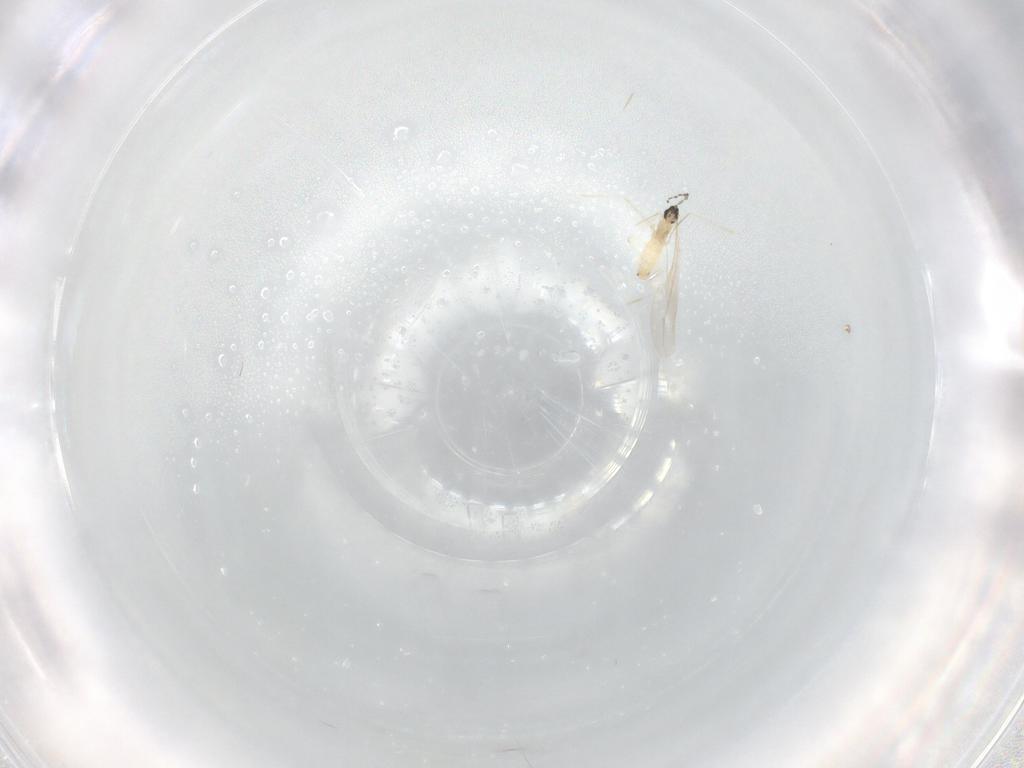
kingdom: Animalia
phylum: Arthropoda
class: Insecta
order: Diptera
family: Cecidomyiidae
